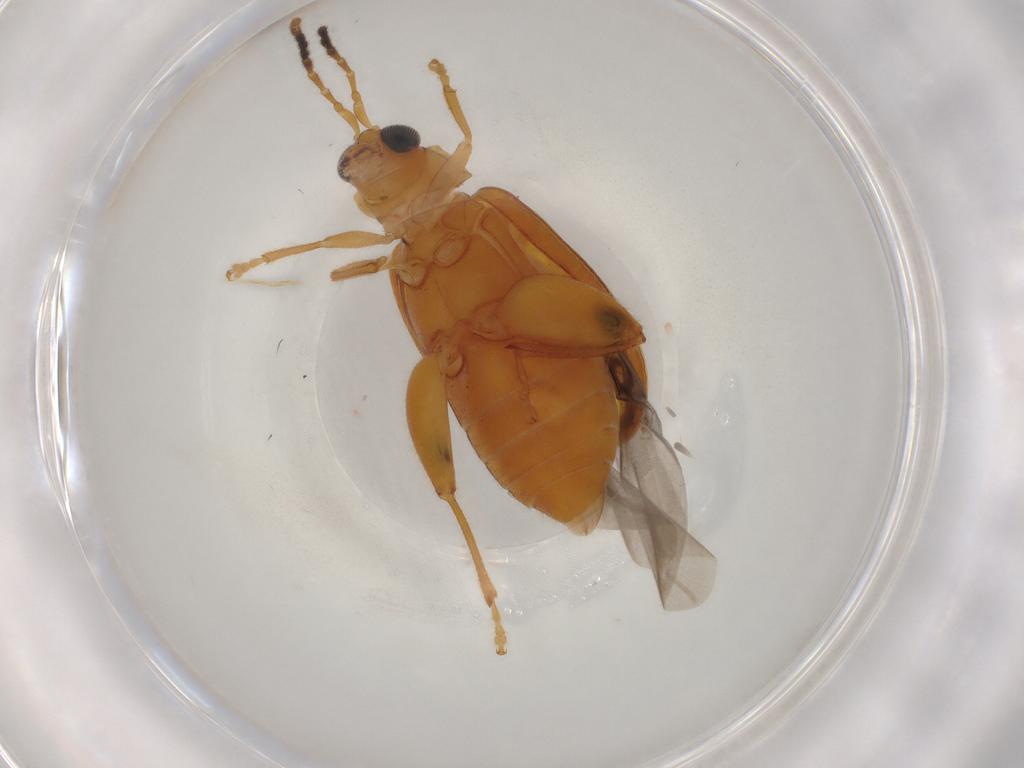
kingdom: Animalia
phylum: Arthropoda
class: Insecta
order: Coleoptera
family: Chrysomelidae
